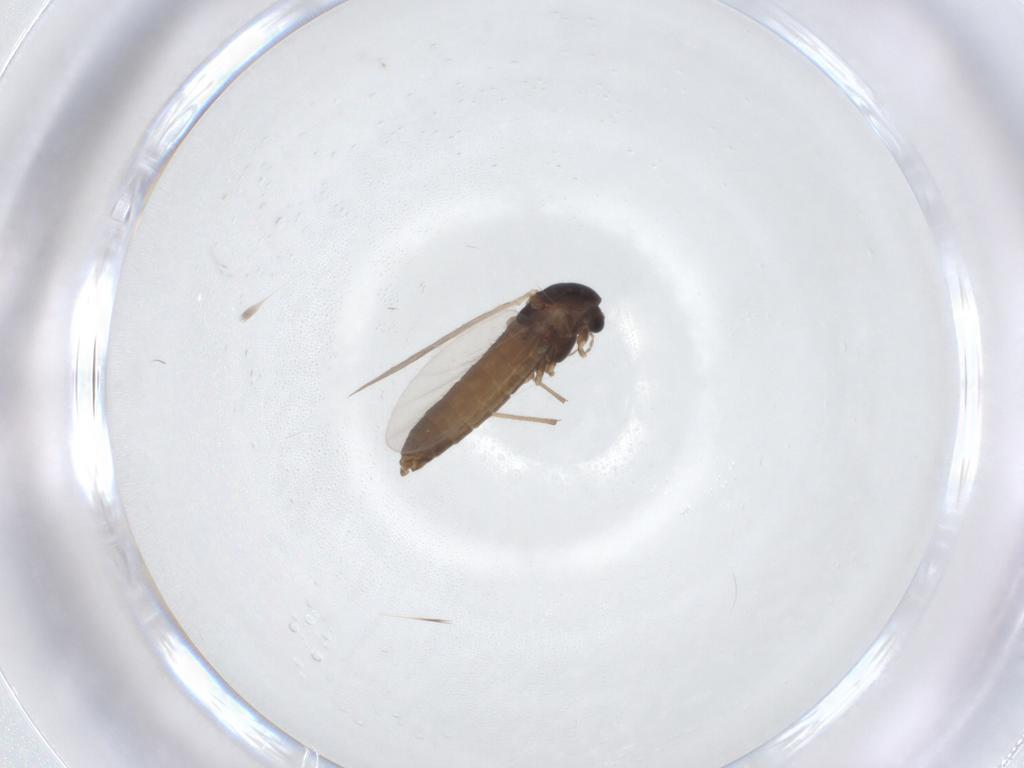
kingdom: Animalia
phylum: Arthropoda
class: Insecta
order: Diptera
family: Chironomidae
